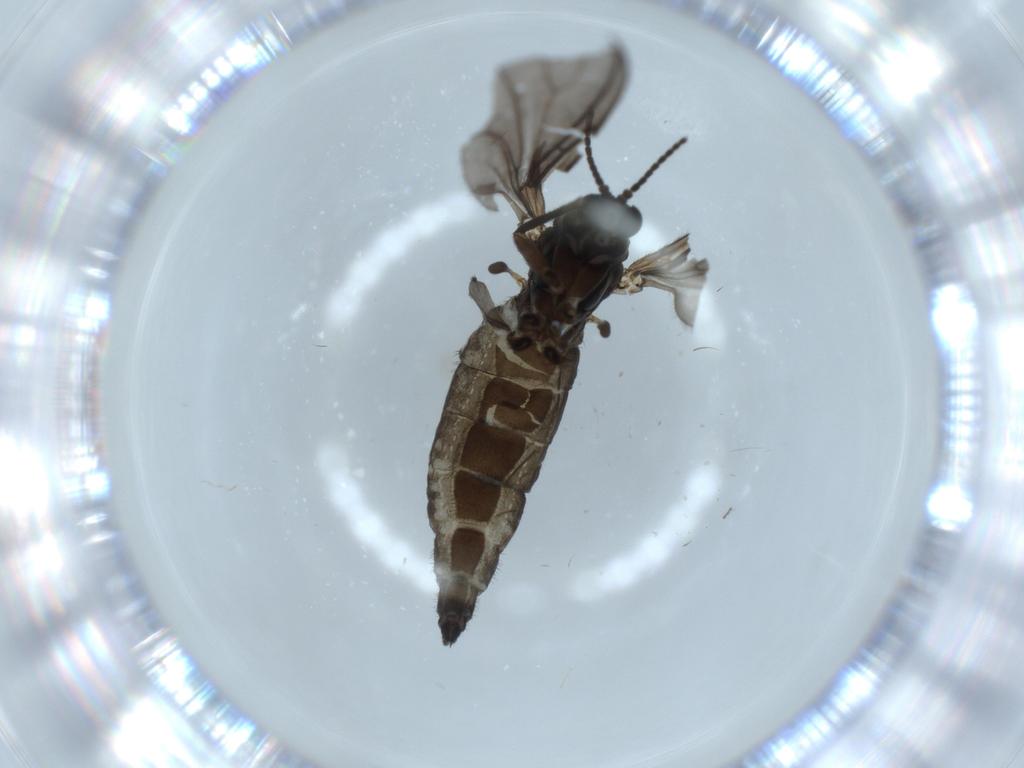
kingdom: Animalia
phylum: Arthropoda
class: Insecta
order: Diptera
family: Sciaridae
